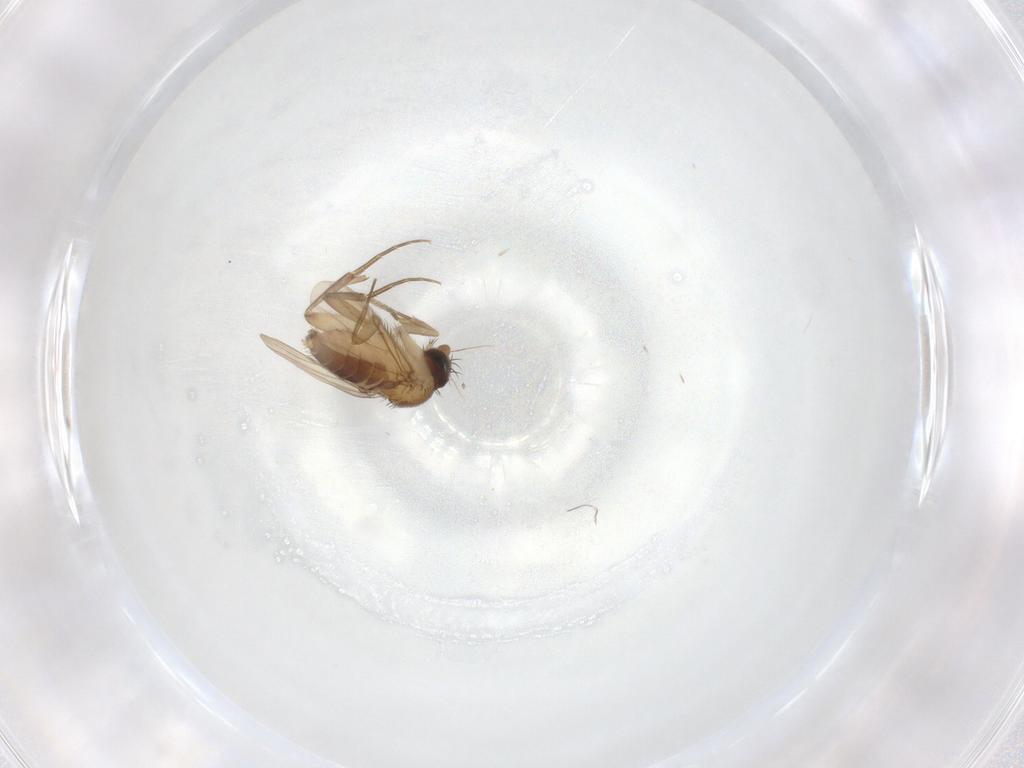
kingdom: Animalia
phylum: Arthropoda
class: Insecta
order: Diptera
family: Phoridae
